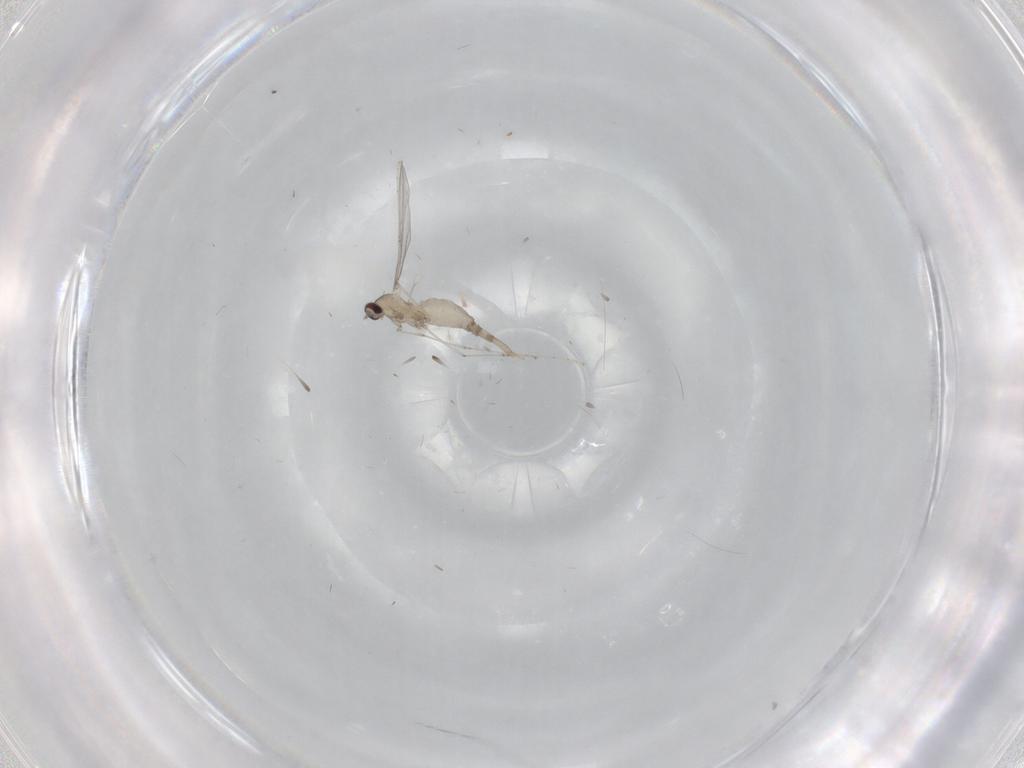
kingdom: Animalia
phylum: Arthropoda
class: Insecta
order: Diptera
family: Cecidomyiidae
